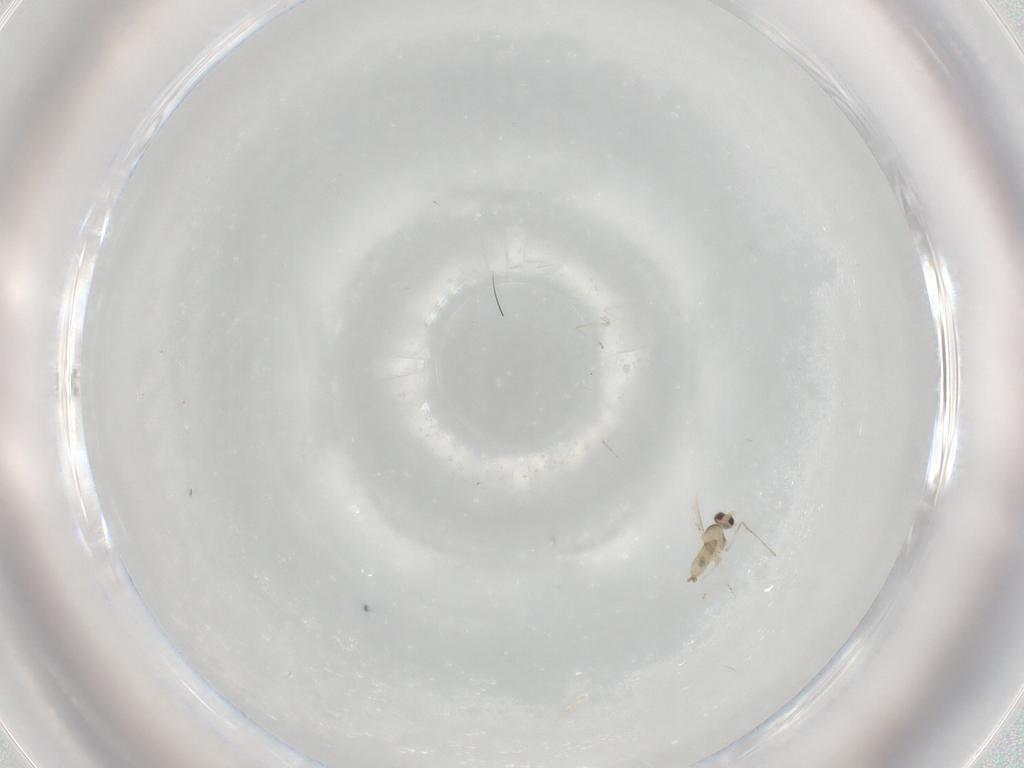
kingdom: Animalia
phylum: Arthropoda
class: Insecta
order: Diptera
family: Cecidomyiidae
